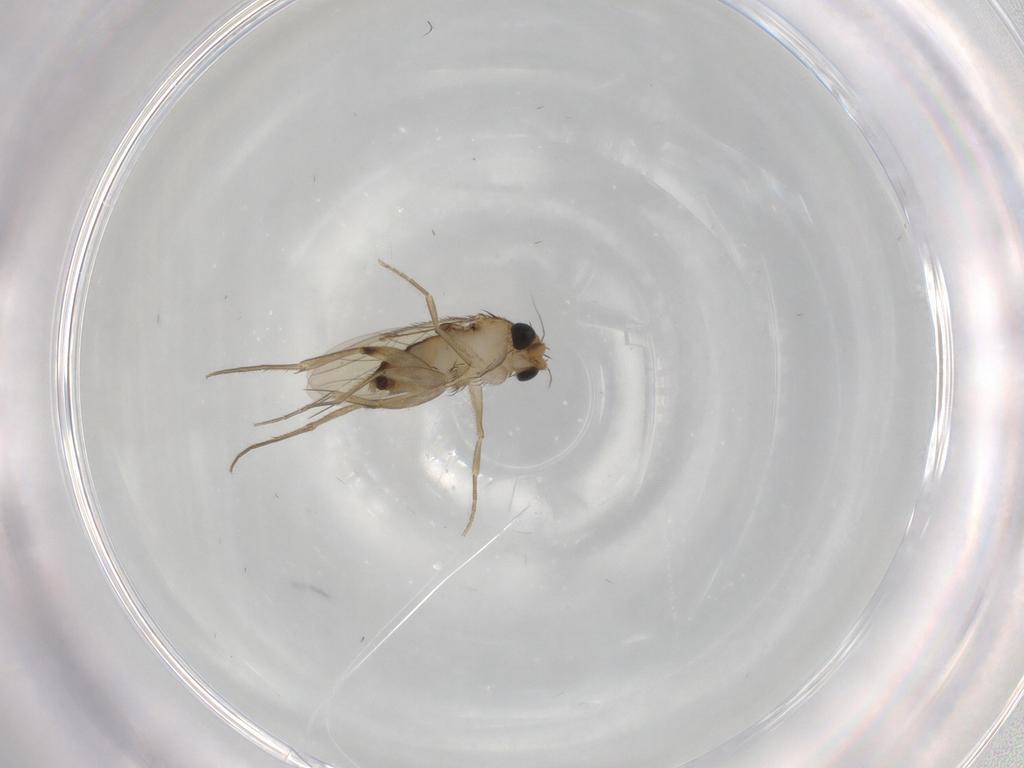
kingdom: Animalia
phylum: Arthropoda
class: Insecta
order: Diptera
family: Phoridae
